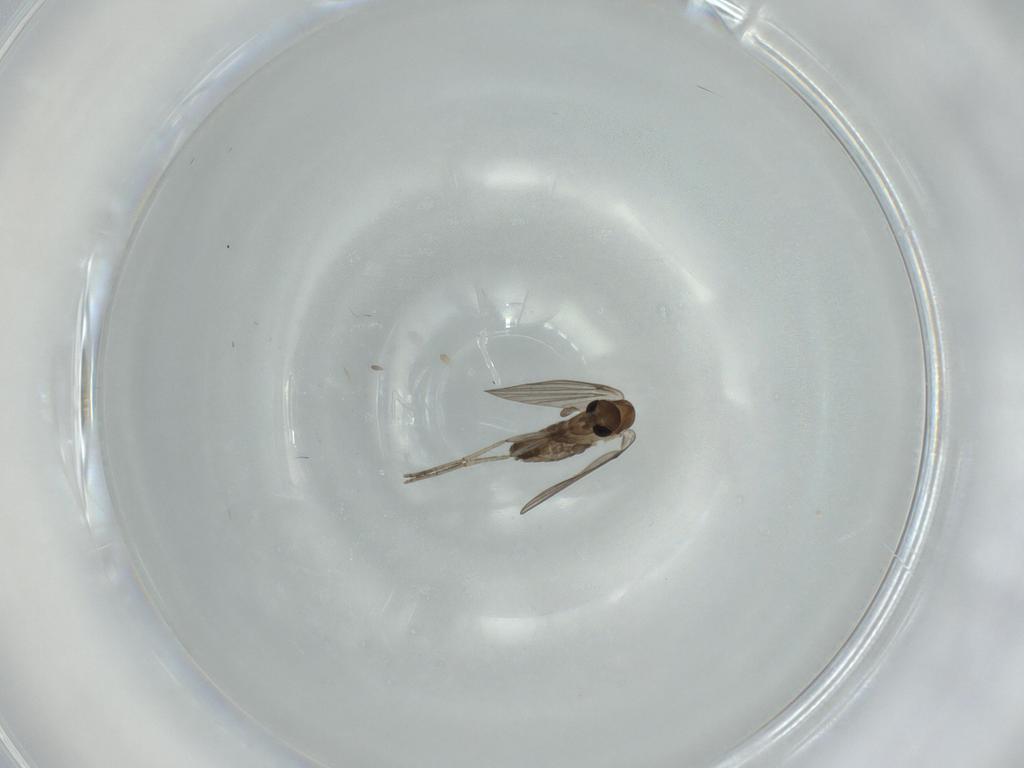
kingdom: Animalia
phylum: Arthropoda
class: Insecta
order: Diptera
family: Psychodidae
